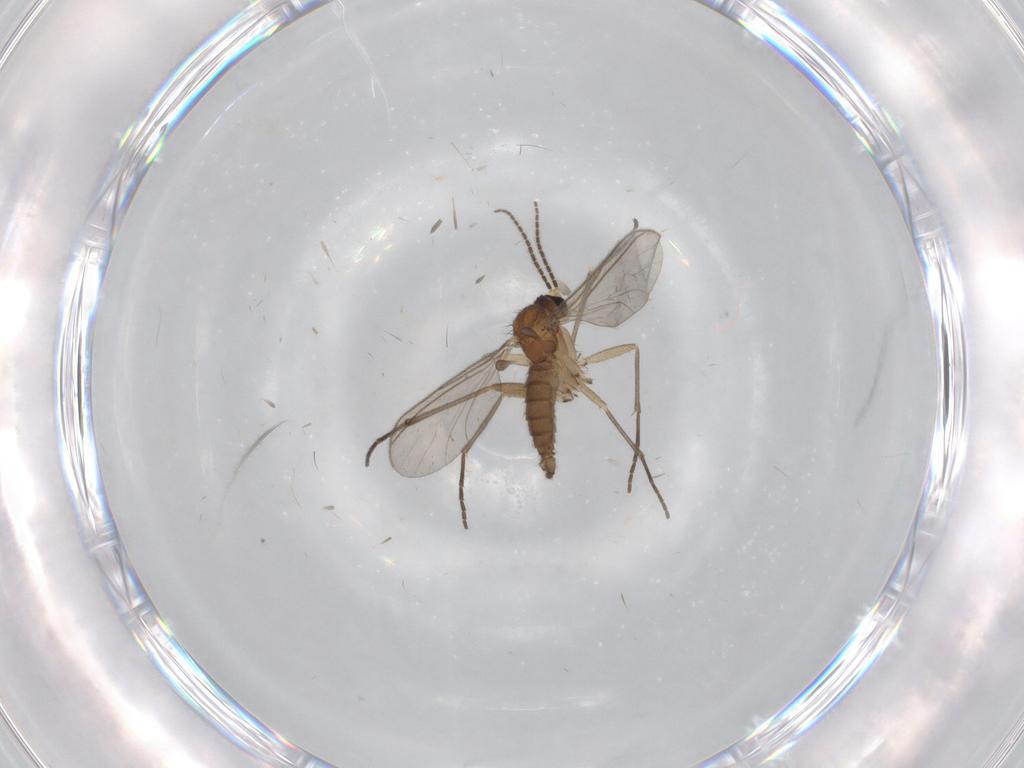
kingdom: Animalia
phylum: Arthropoda
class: Insecta
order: Diptera
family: Sciaridae
